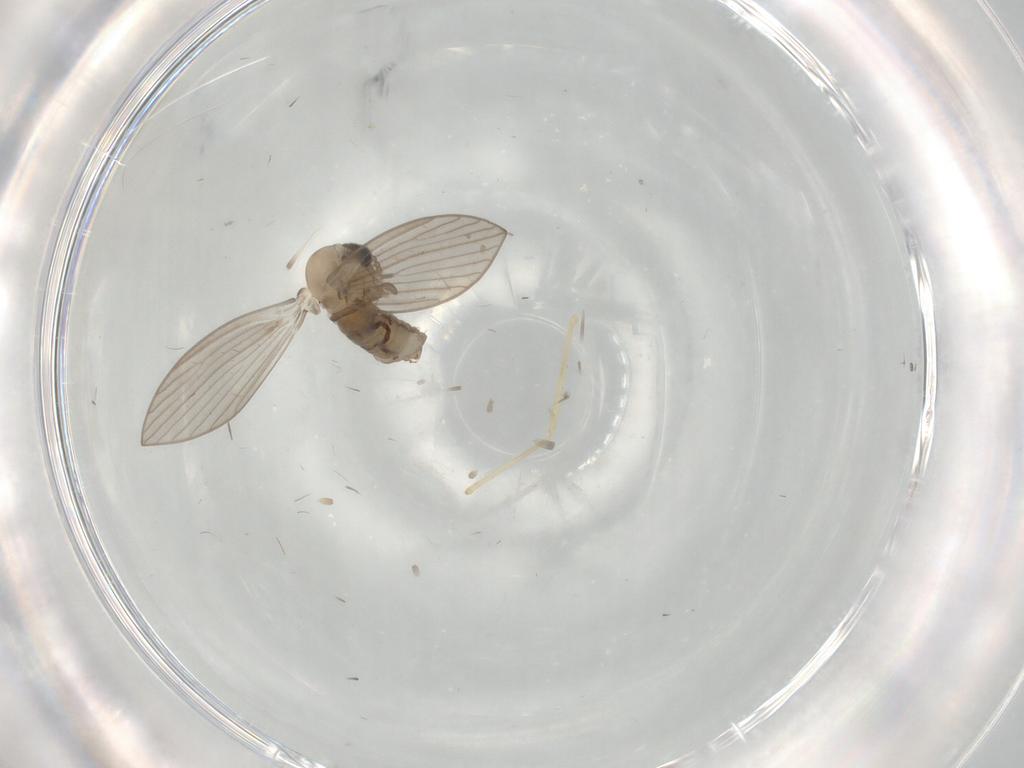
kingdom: Animalia
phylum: Arthropoda
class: Insecta
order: Diptera
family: Psychodidae
